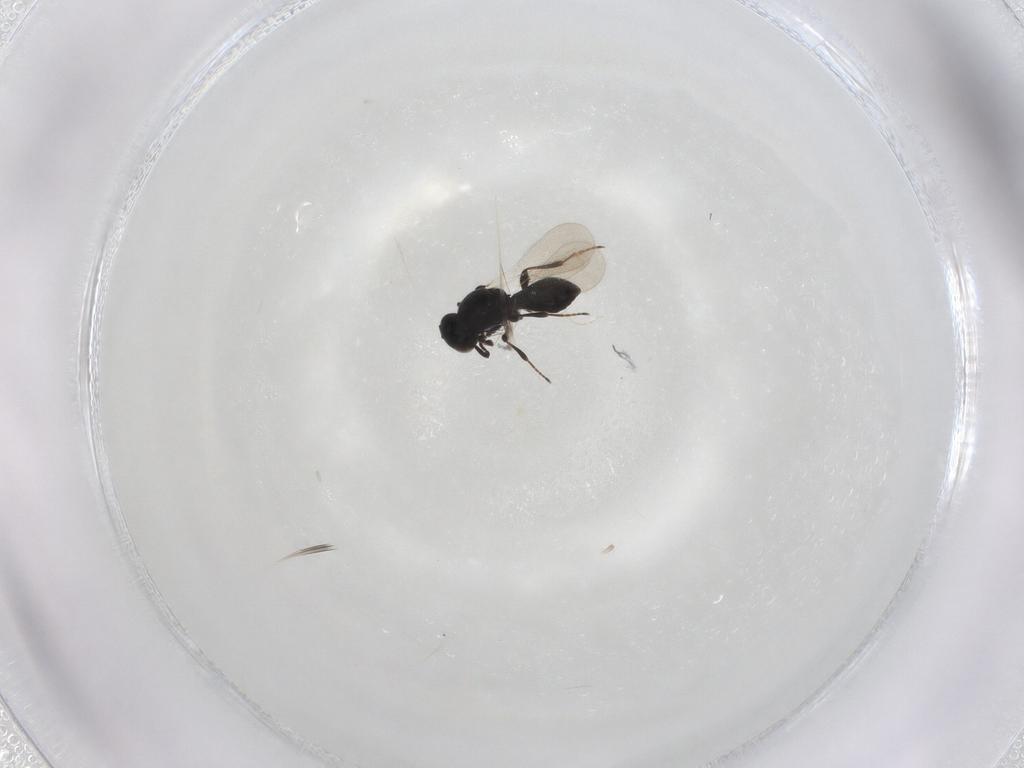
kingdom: Animalia
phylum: Arthropoda
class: Insecta
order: Hymenoptera
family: Platygastridae
